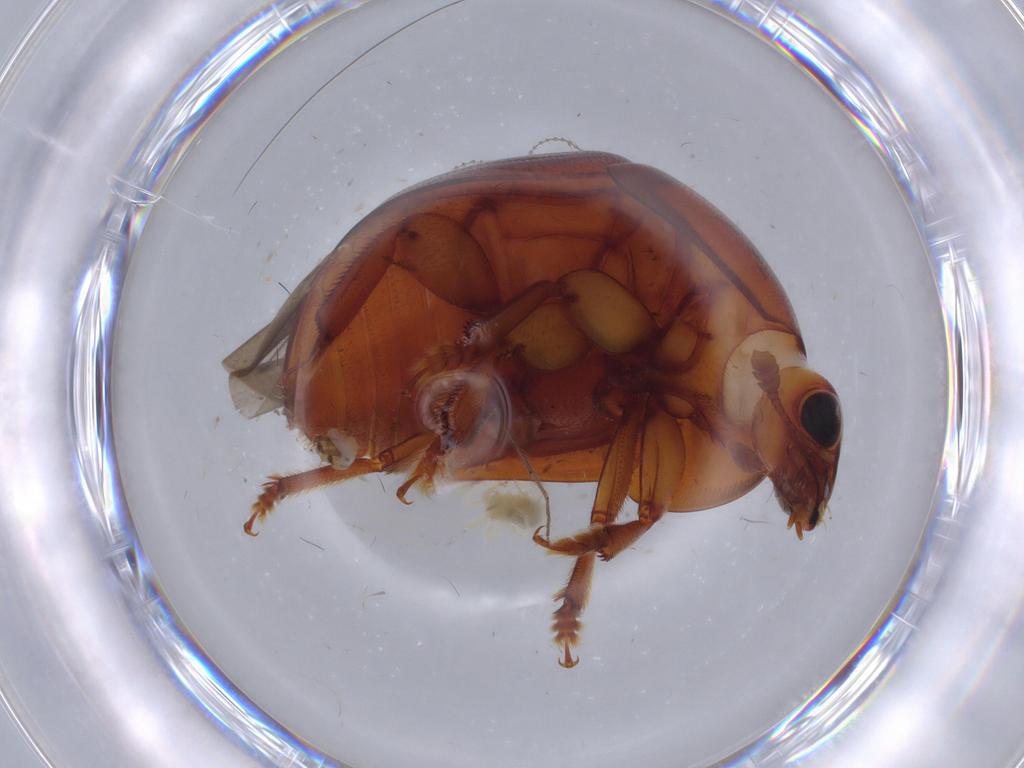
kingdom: Animalia
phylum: Arthropoda
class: Insecta
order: Coleoptera
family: Nitidulidae
